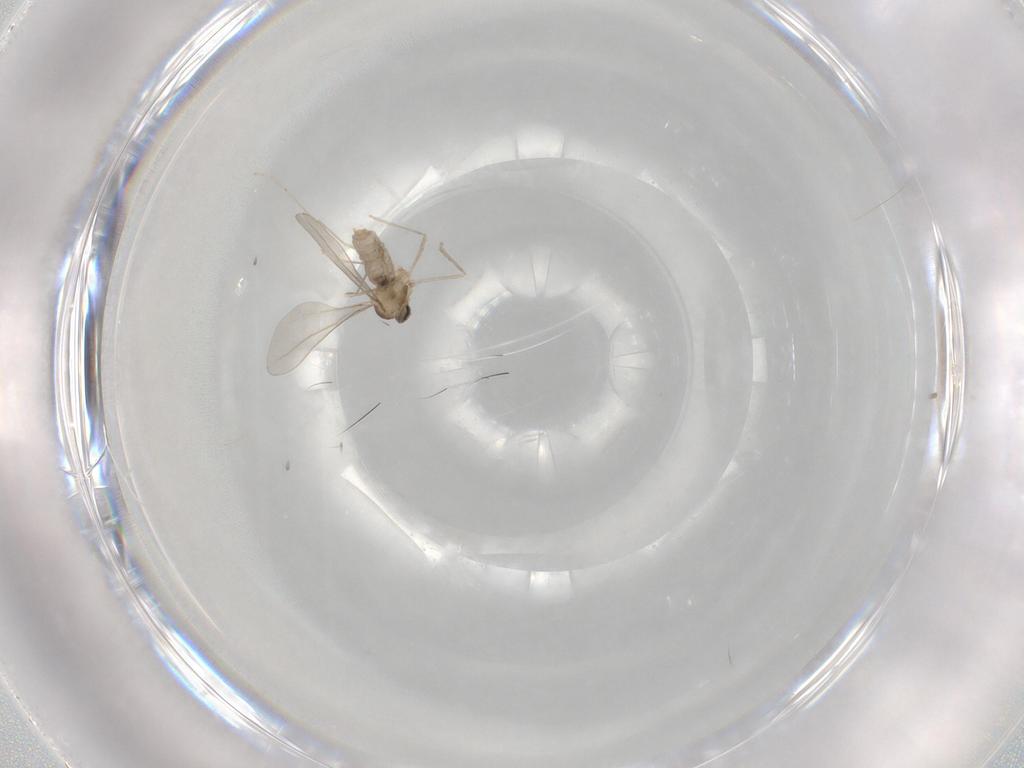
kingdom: Animalia
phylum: Arthropoda
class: Insecta
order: Diptera
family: Cecidomyiidae
